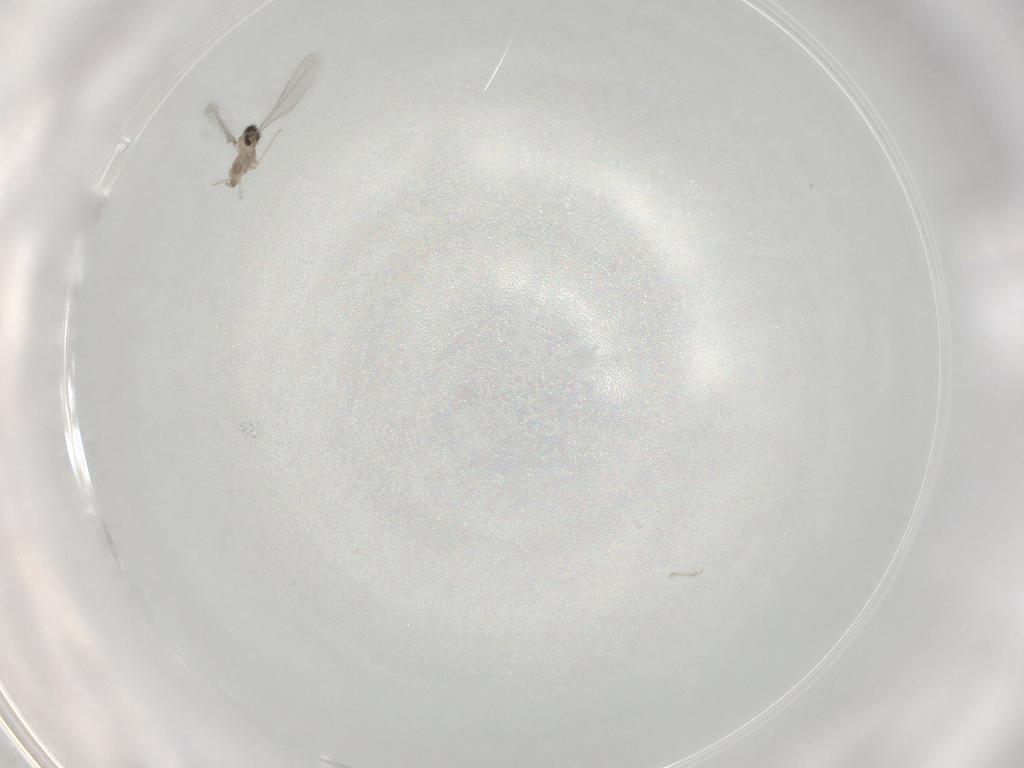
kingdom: Animalia
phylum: Arthropoda
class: Insecta
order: Diptera
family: Cecidomyiidae
